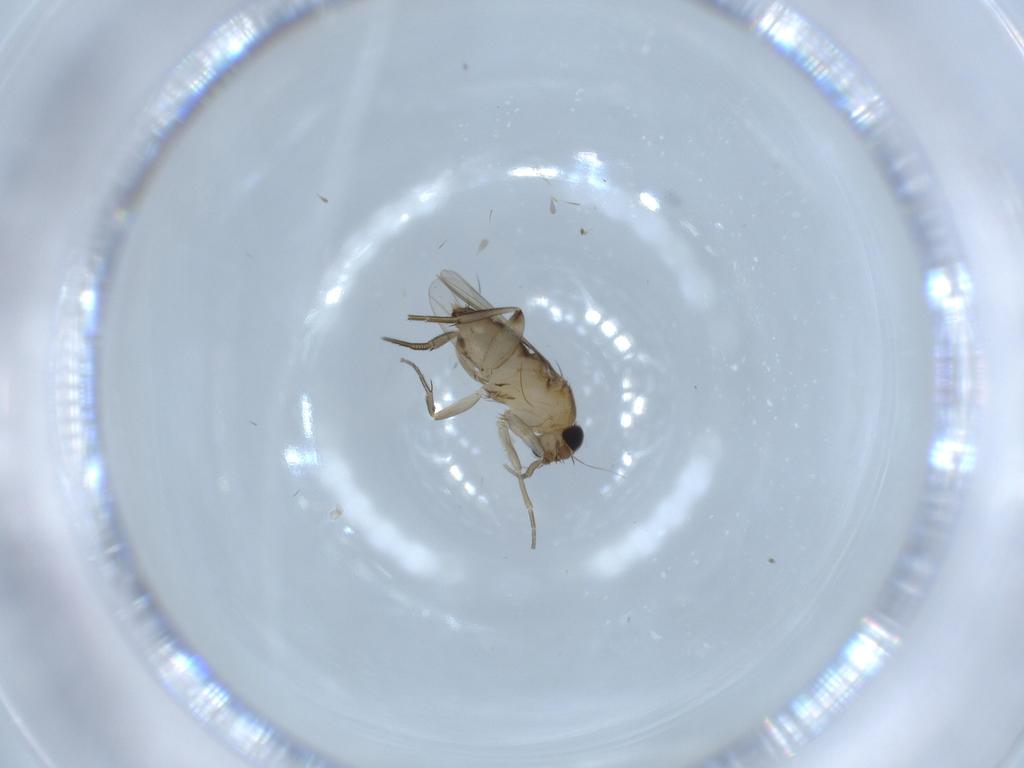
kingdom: Animalia
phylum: Arthropoda
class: Insecta
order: Diptera
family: Phoridae
